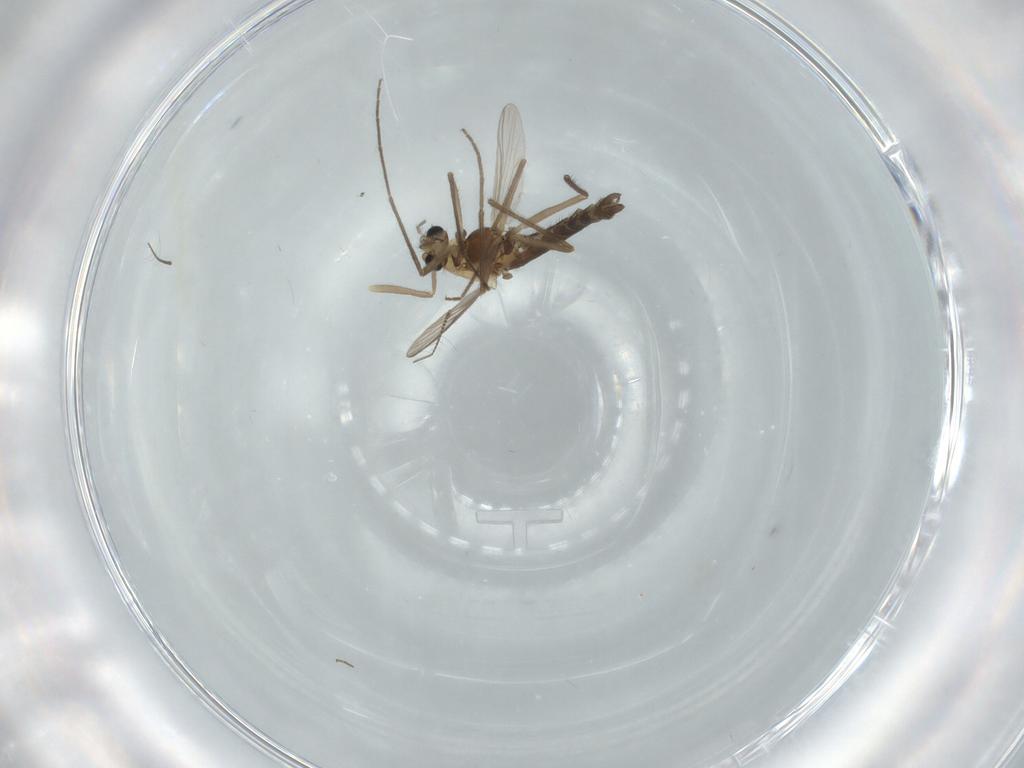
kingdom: Animalia
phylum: Arthropoda
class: Insecta
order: Diptera
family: Chironomidae
